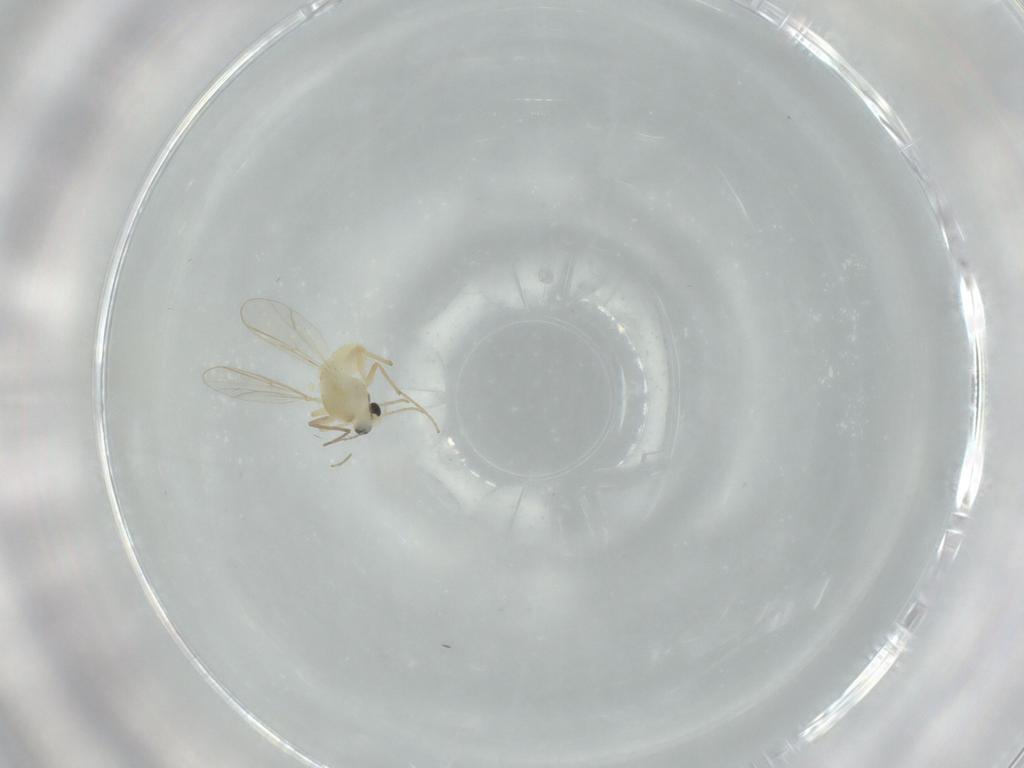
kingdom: Animalia
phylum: Arthropoda
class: Insecta
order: Diptera
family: Chironomidae
